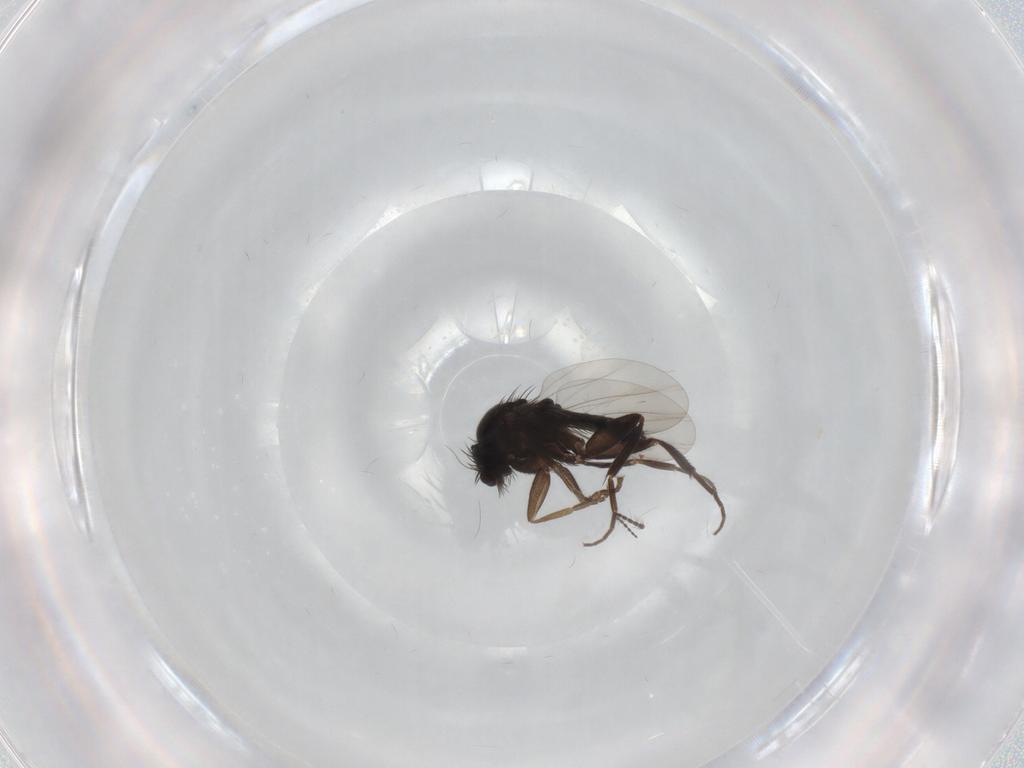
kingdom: Animalia
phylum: Arthropoda
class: Insecta
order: Diptera
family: Phoridae
